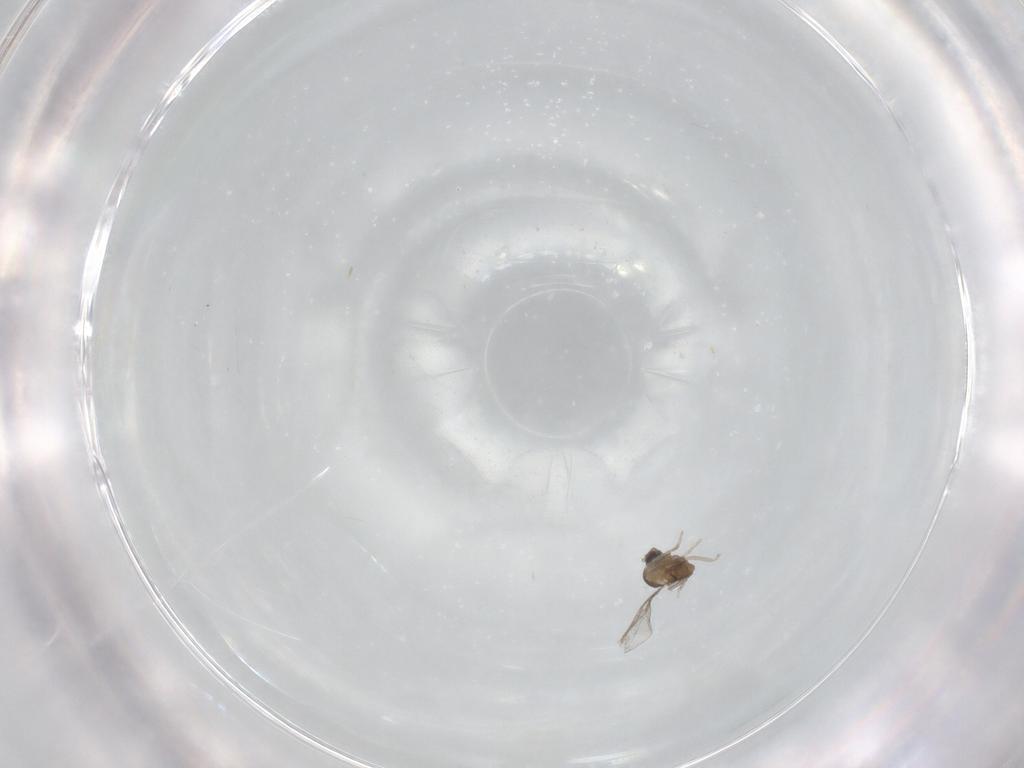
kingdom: Animalia
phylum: Arthropoda
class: Insecta
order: Diptera
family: Cecidomyiidae
